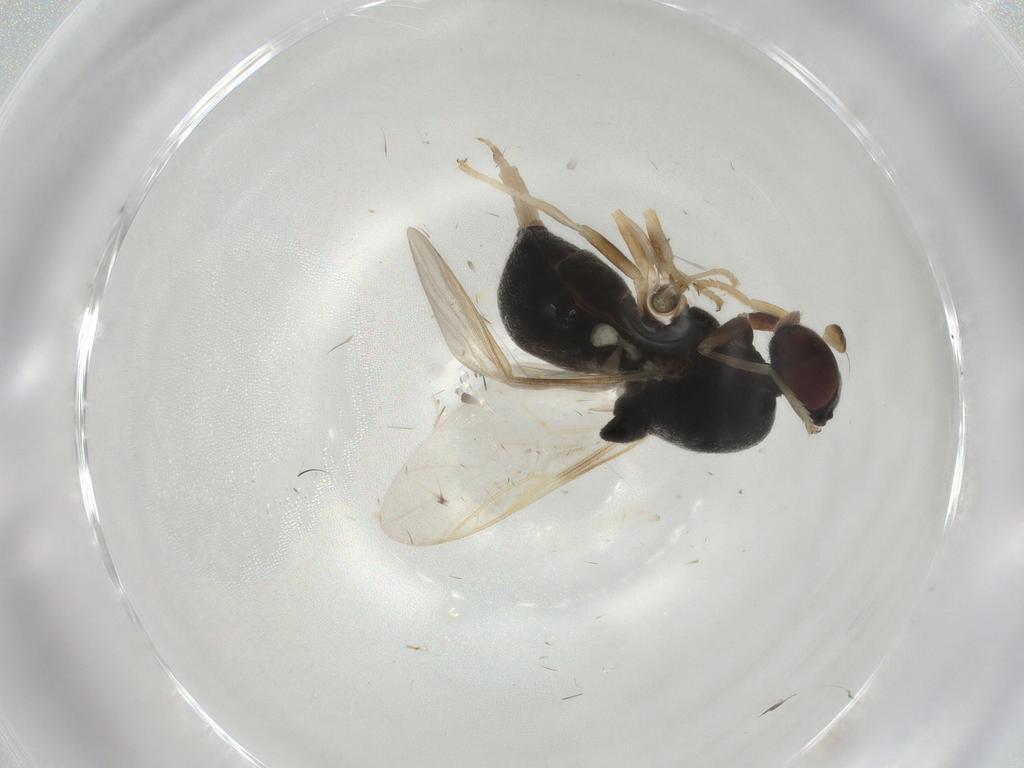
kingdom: Animalia
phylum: Arthropoda
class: Insecta
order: Diptera
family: Stratiomyidae
